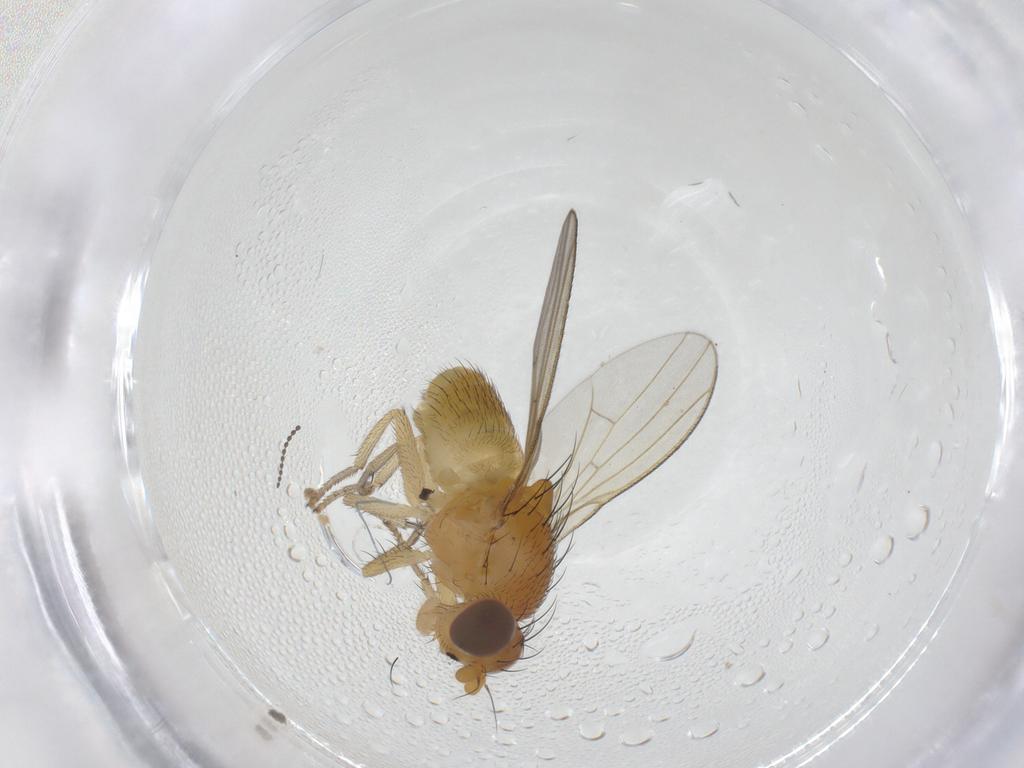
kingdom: Animalia
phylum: Arthropoda
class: Insecta
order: Diptera
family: Cecidomyiidae
